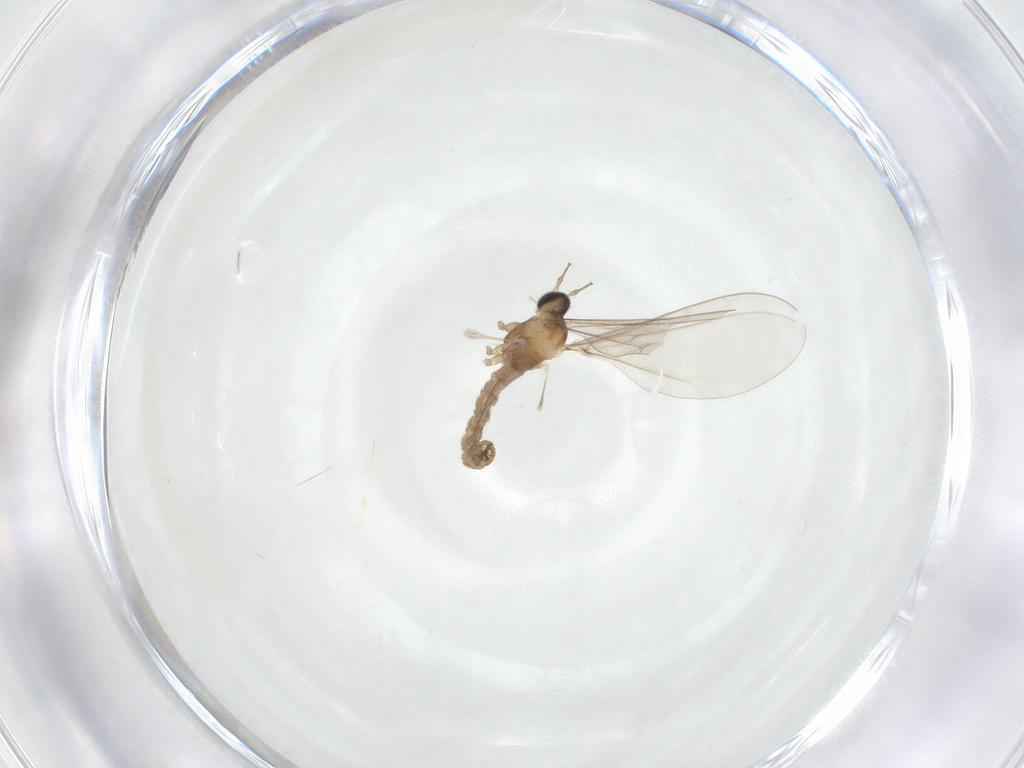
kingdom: Animalia
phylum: Arthropoda
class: Insecta
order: Diptera
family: Cecidomyiidae
